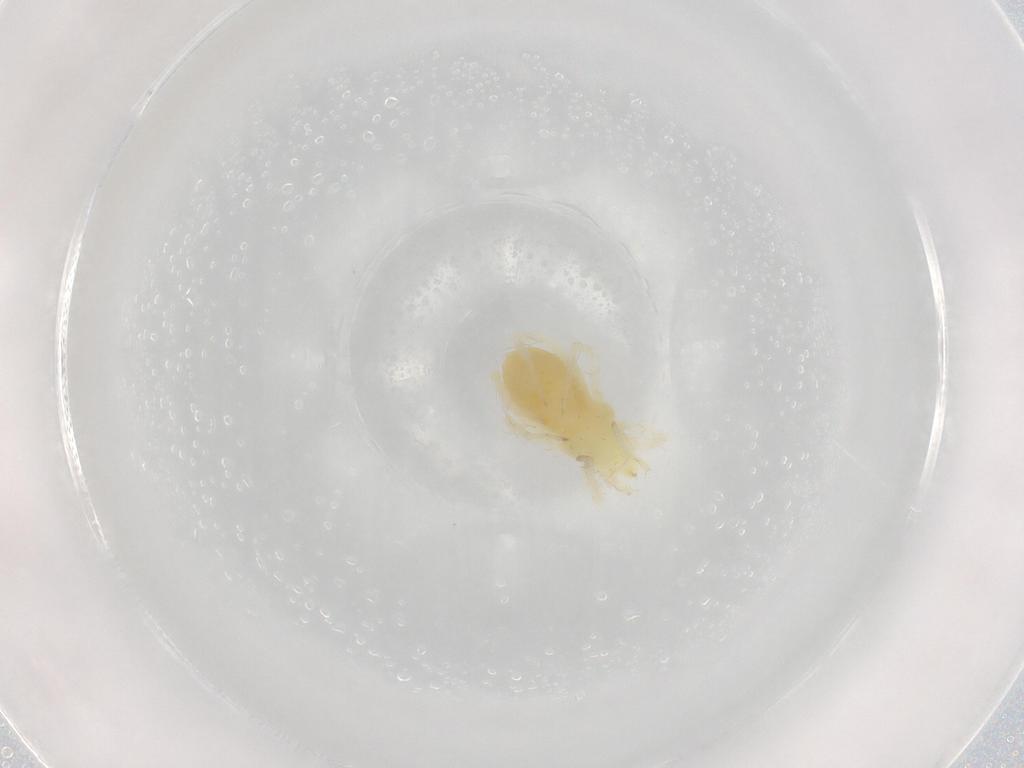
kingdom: Animalia
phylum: Arthropoda
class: Arachnida
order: Trombidiformes
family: Rhagidiidae
